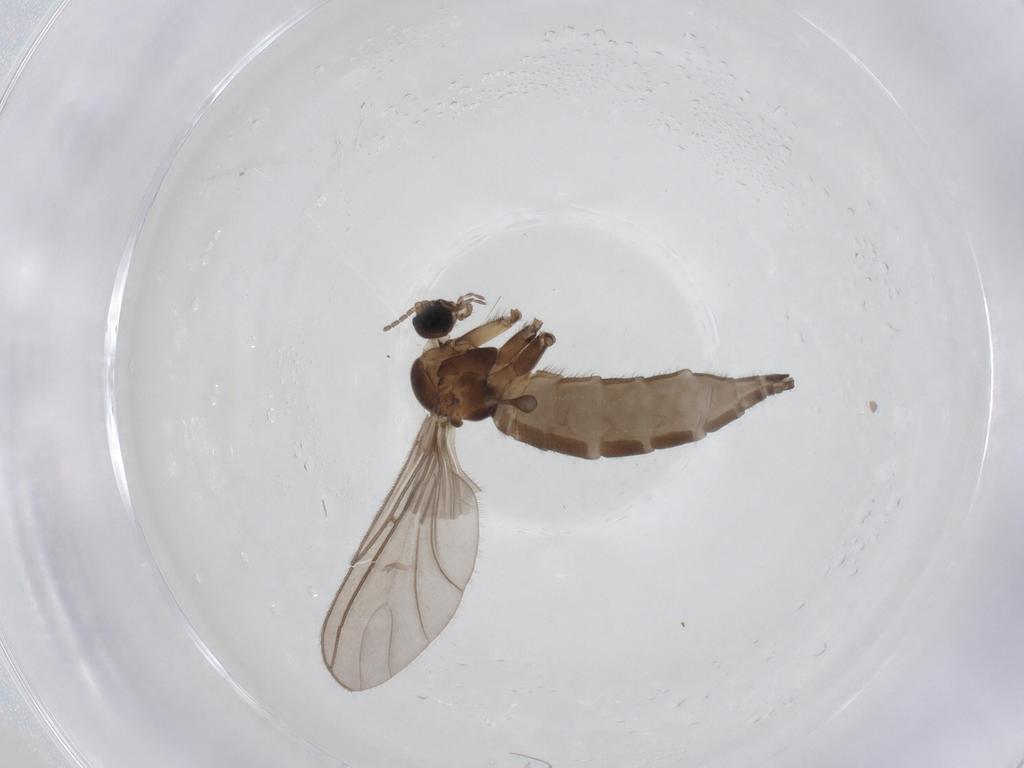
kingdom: Animalia
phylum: Arthropoda
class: Insecta
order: Diptera
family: Sciaridae
